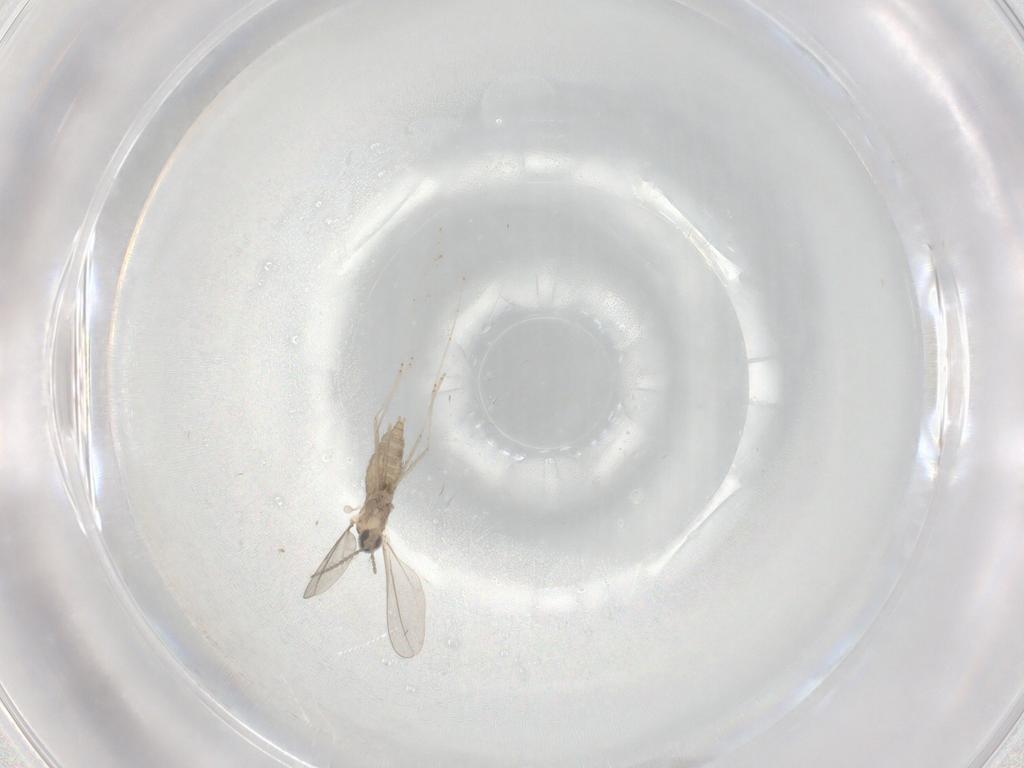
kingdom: Animalia
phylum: Arthropoda
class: Insecta
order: Diptera
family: Cecidomyiidae
